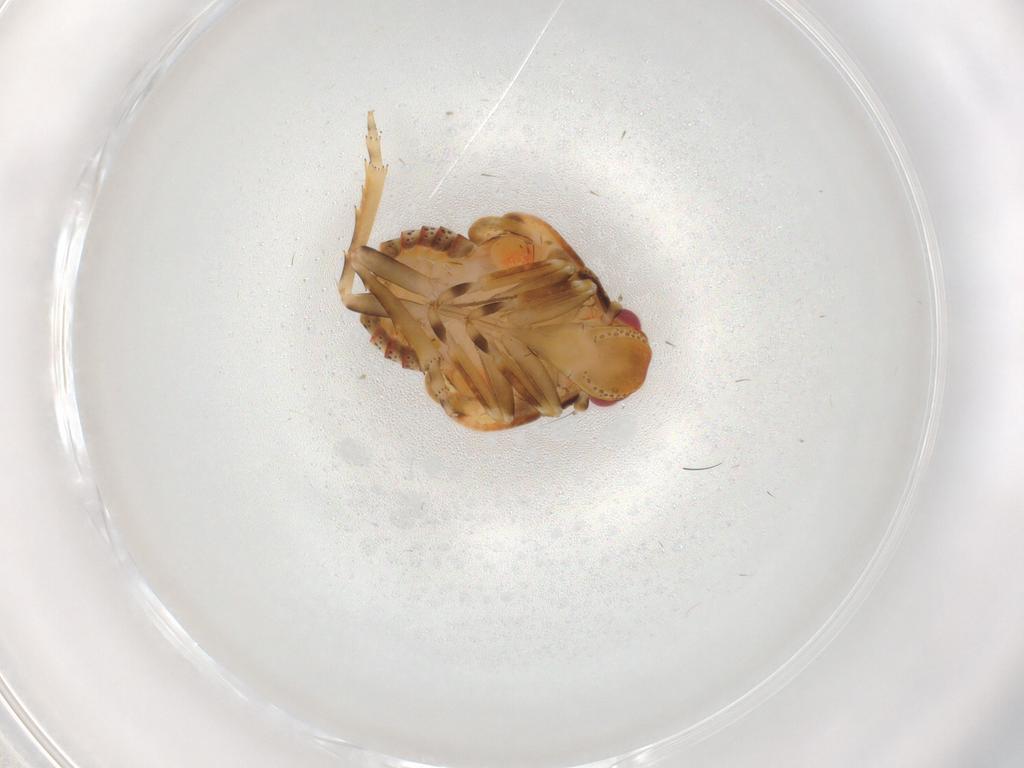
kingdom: Animalia
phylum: Arthropoda
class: Insecta
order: Hemiptera
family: Flatidae
